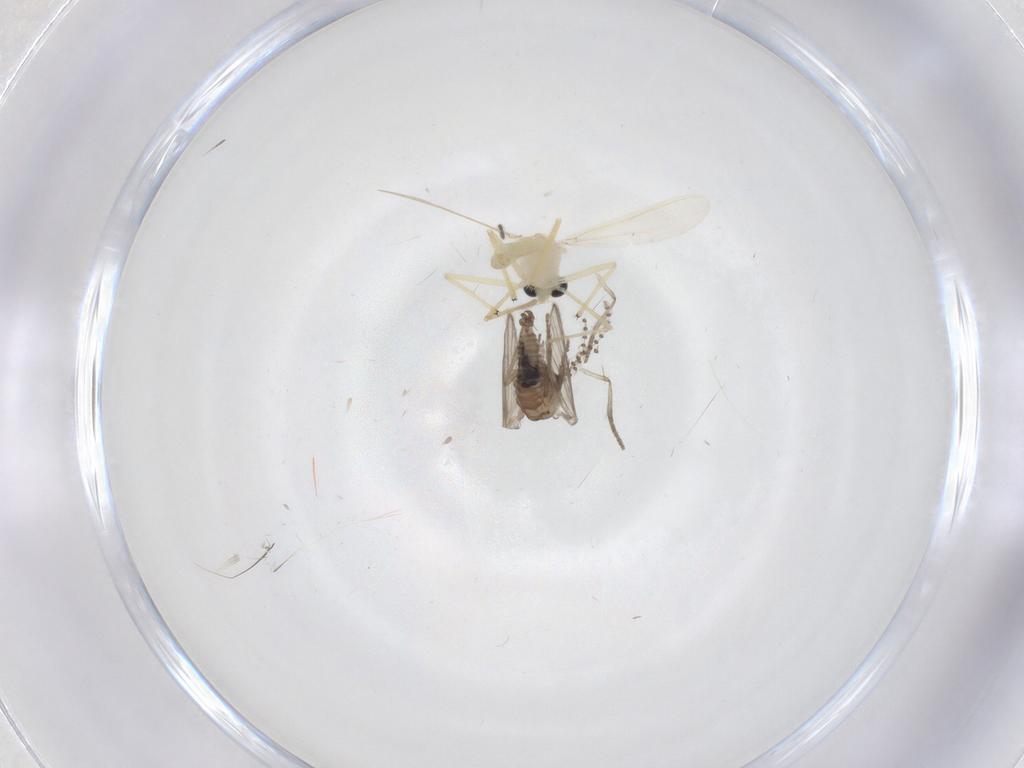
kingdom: Animalia
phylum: Arthropoda
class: Insecta
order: Diptera
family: Chironomidae
